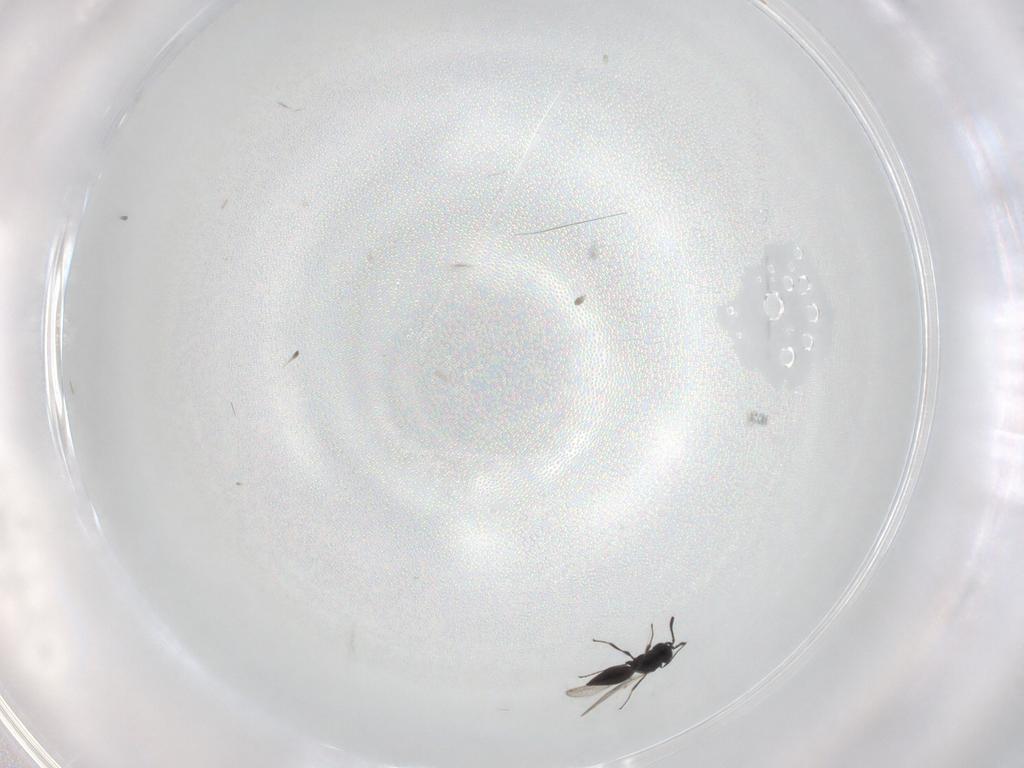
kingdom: Animalia
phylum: Arthropoda
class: Insecta
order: Hymenoptera
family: Scelionidae
